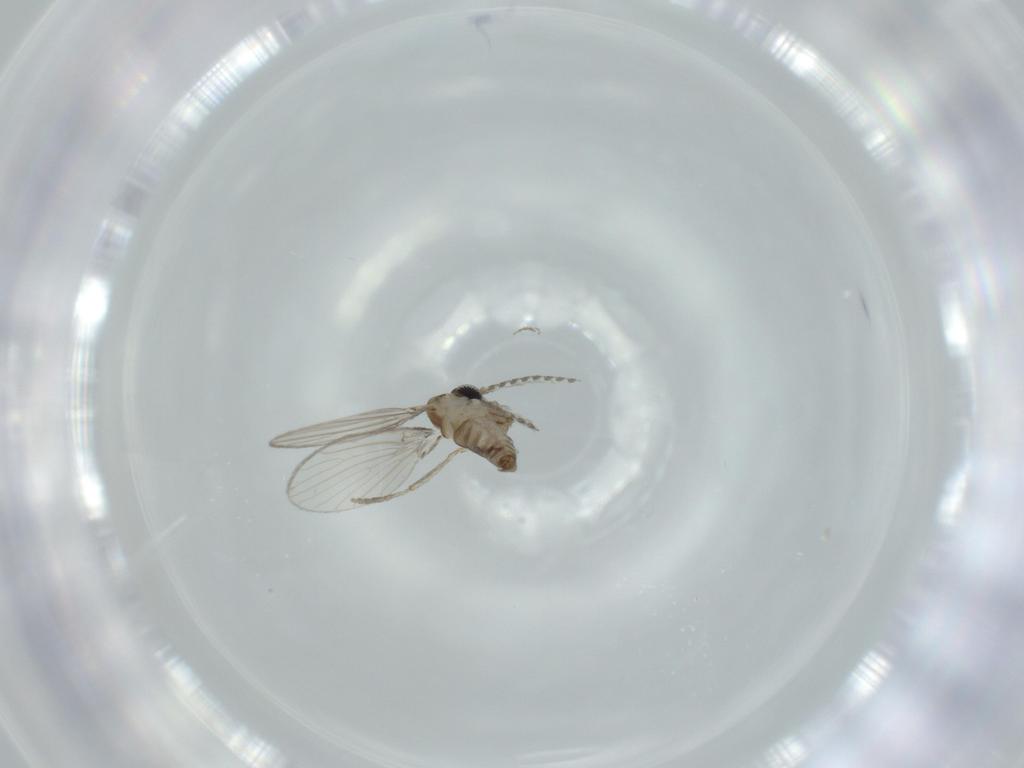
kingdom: Animalia
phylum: Arthropoda
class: Insecta
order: Diptera
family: Psychodidae
